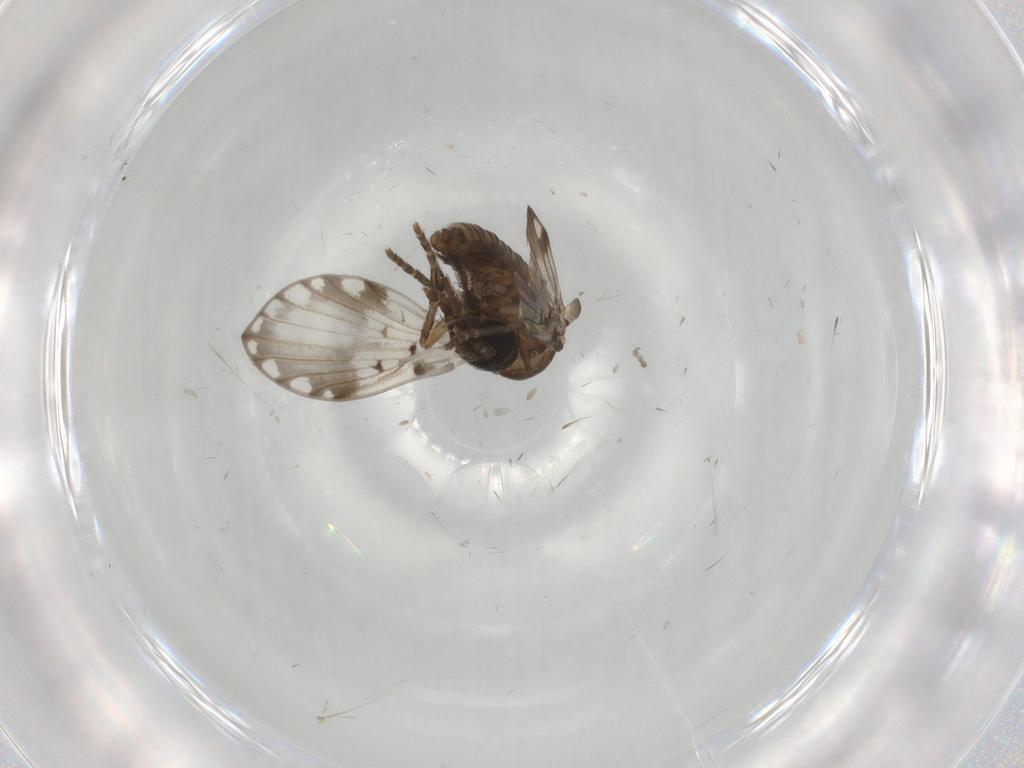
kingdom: Animalia
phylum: Arthropoda
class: Insecta
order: Diptera
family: Cecidomyiidae
